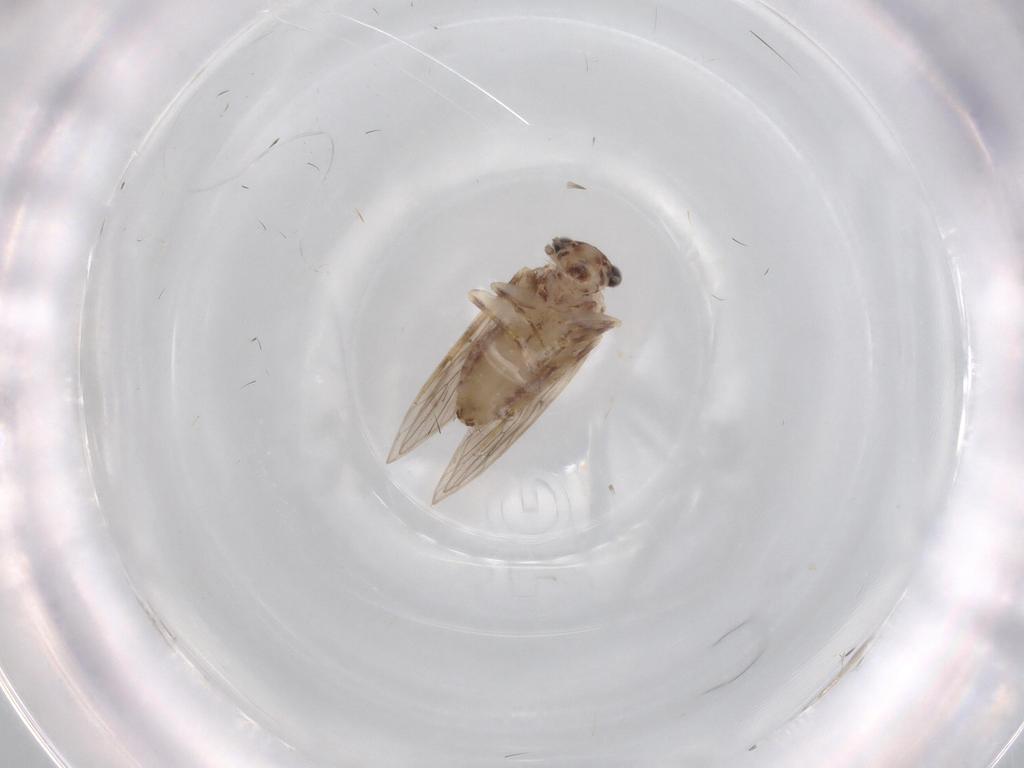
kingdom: Animalia
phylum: Arthropoda
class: Insecta
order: Psocodea
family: Lepidopsocidae
